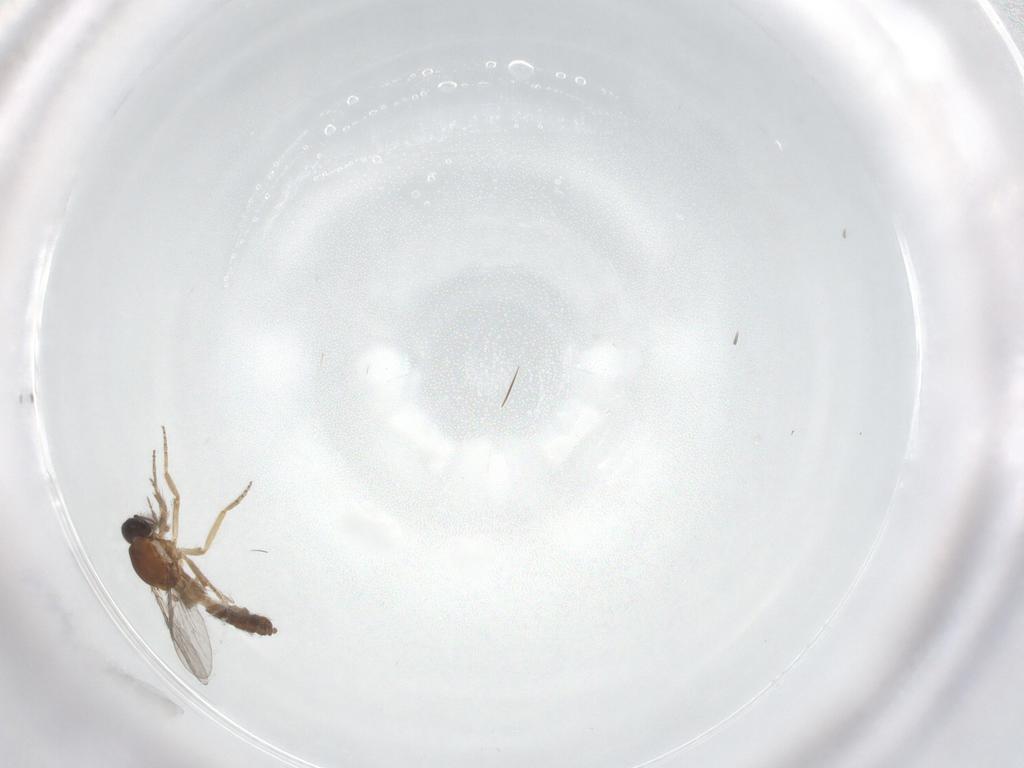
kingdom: Animalia
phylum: Arthropoda
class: Insecta
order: Diptera
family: Ceratopogonidae
